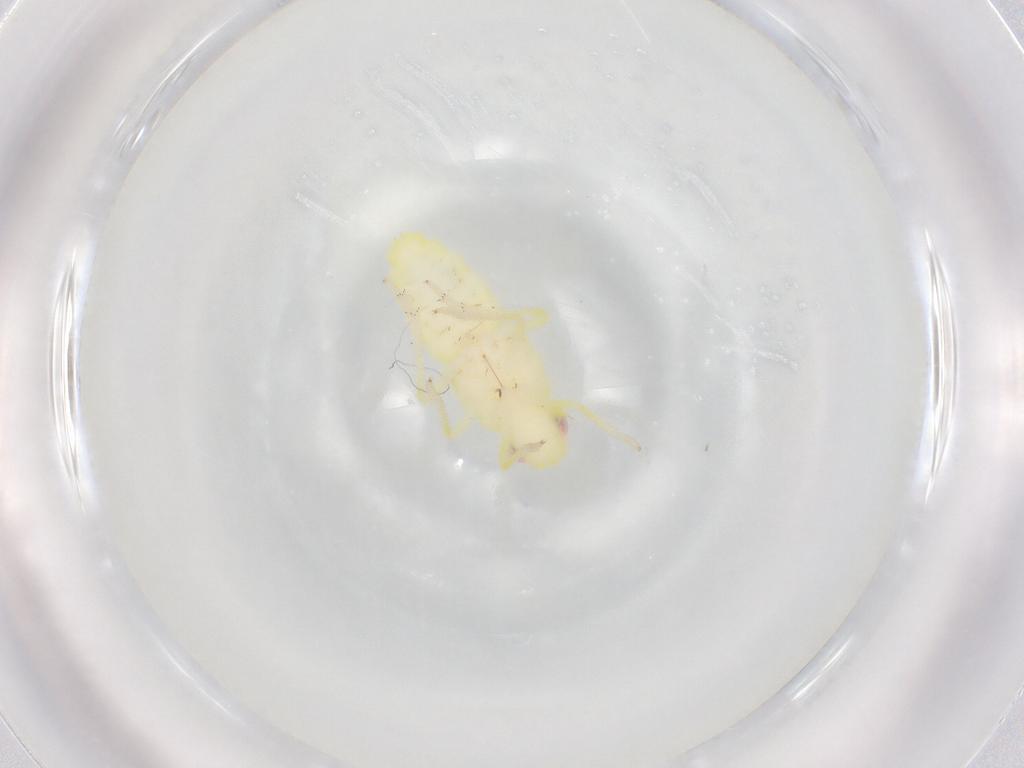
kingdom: Animalia
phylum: Arthropoda
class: Insecta
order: Hemiptera
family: Fulgoroidea_incertae_sedis
